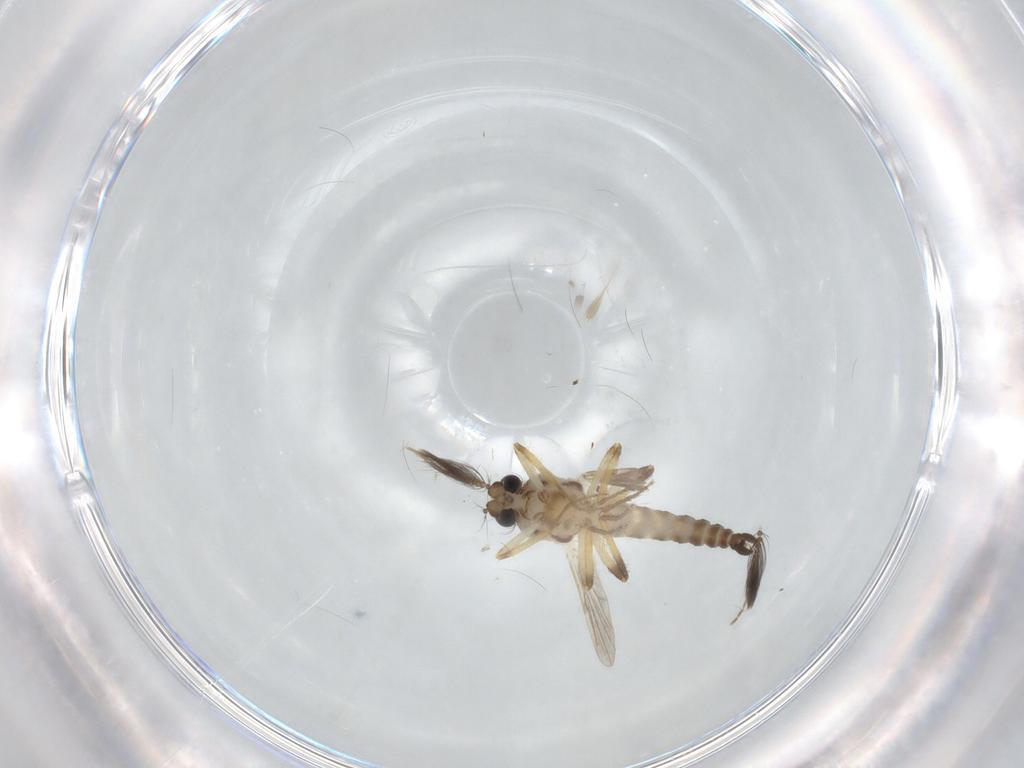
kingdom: Animalia
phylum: Arthropoda
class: Insecta
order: Diptera
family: Ceratopogonidae
